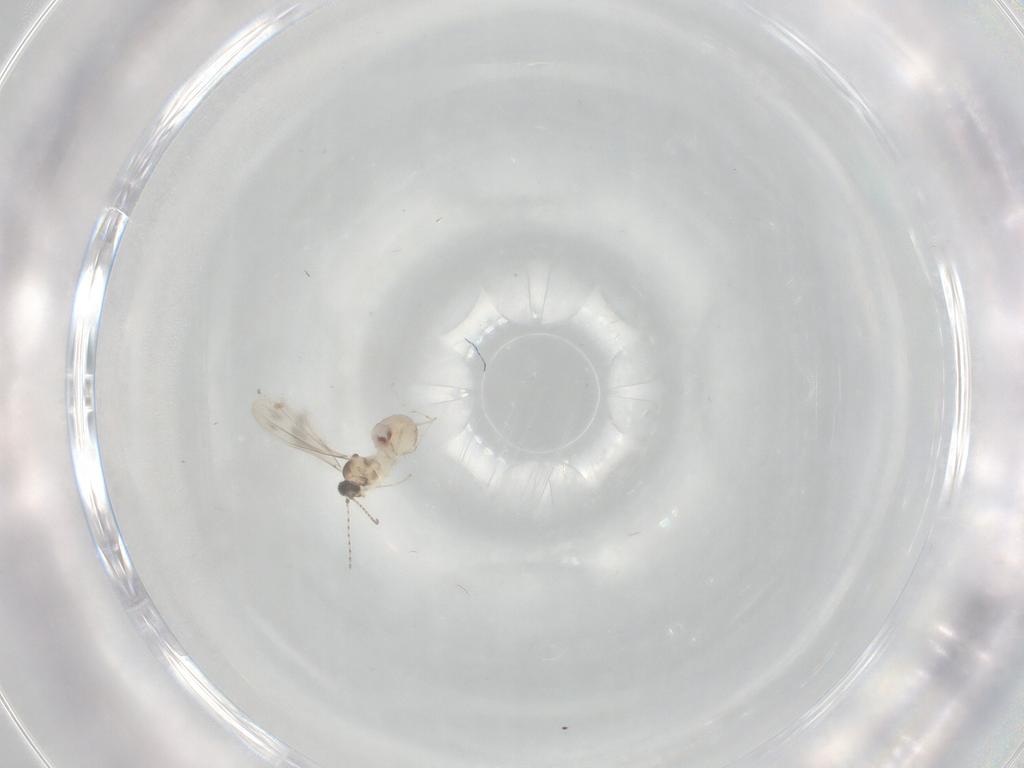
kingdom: Animalia
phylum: Arthropoda
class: Insecta
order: Diptera
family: Cecidomyiidae
